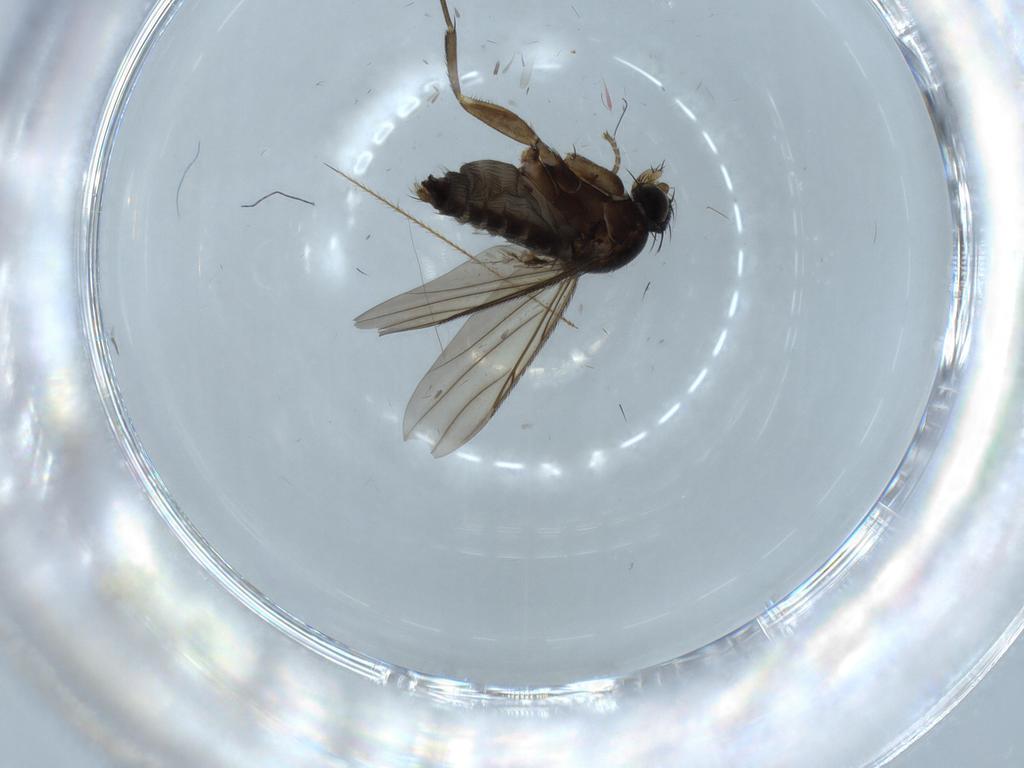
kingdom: Animalia
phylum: Arthropoda
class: Insecta
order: Diptera
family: Phoridae
